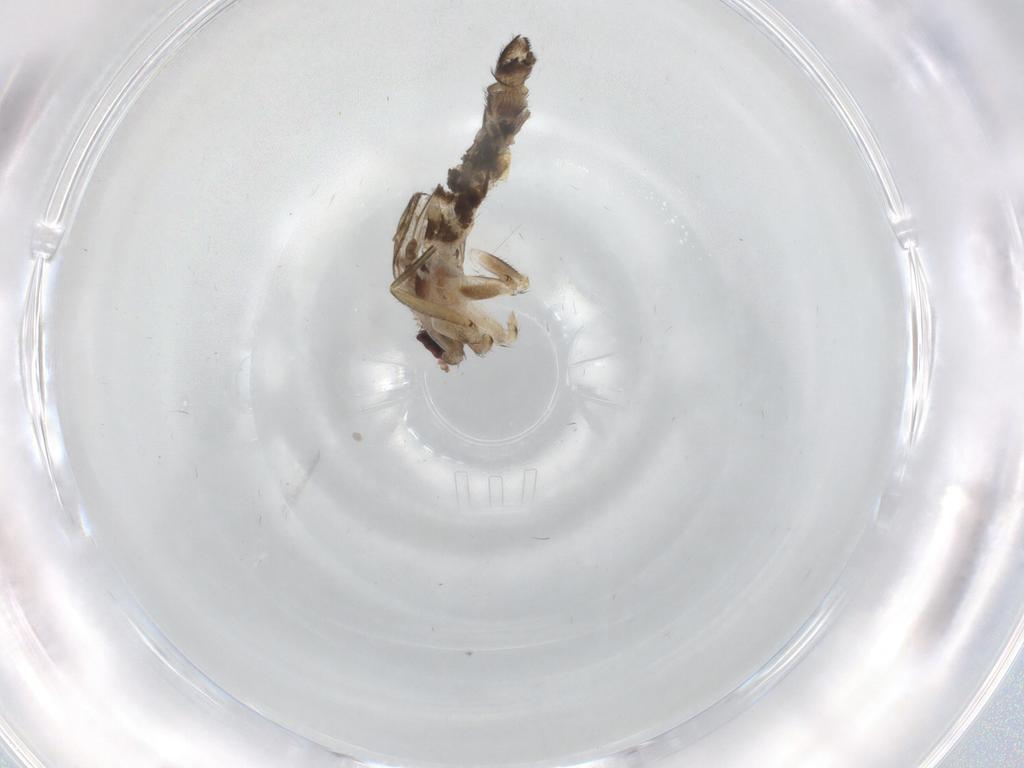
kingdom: Animalia
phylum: Arthropoda
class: Insecta
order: Diptera
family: Keroplatidae
